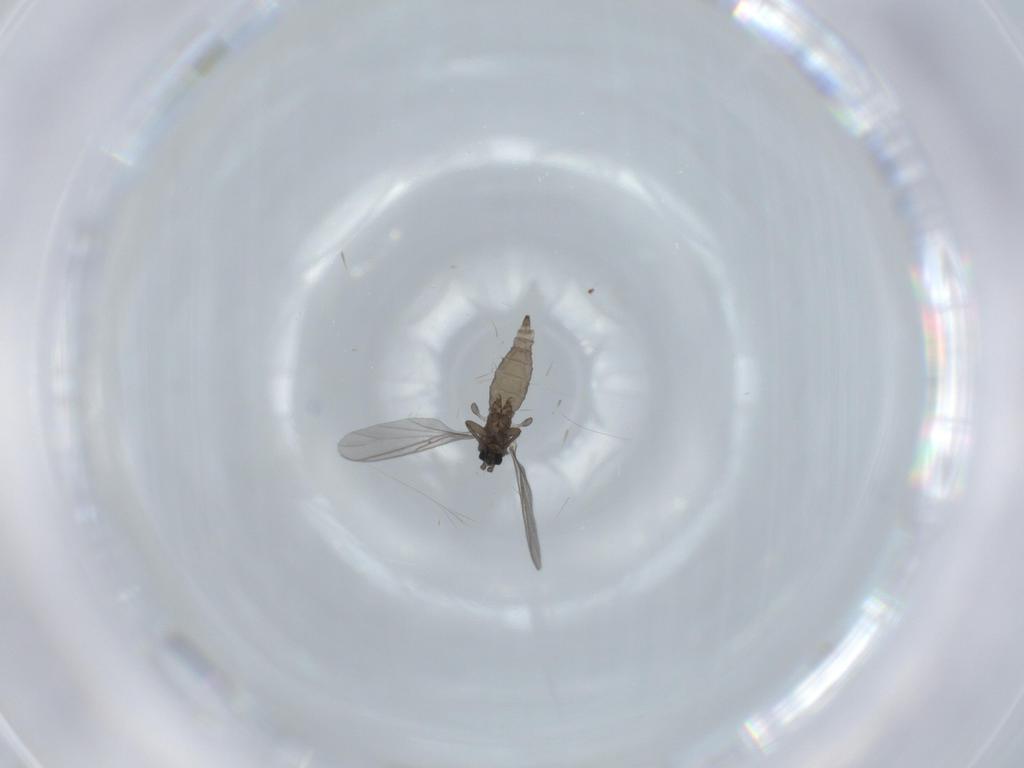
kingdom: Animalia
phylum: Arthropoda
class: Insecta
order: Diptera
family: Sciaridae
